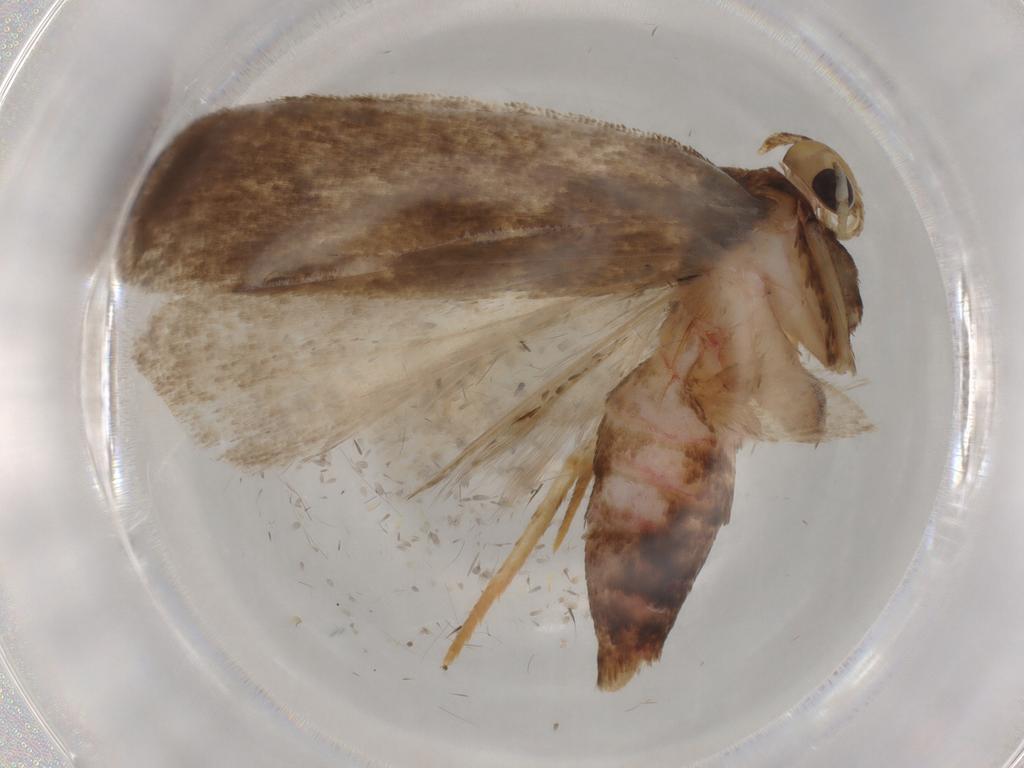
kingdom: Animalia
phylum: Arthropoda
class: Insecta
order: Lepidoptera
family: Autostichidae
